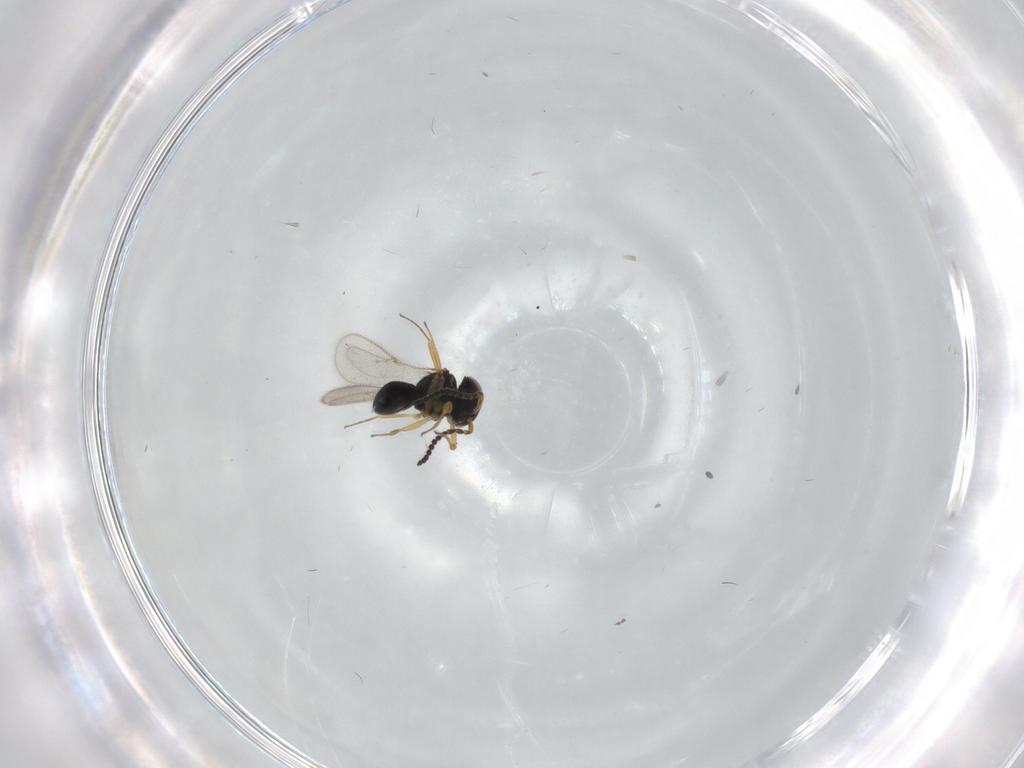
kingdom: Animalia
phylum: Arthropoda
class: Insecta
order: Hymenoptera
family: Scelionidae
